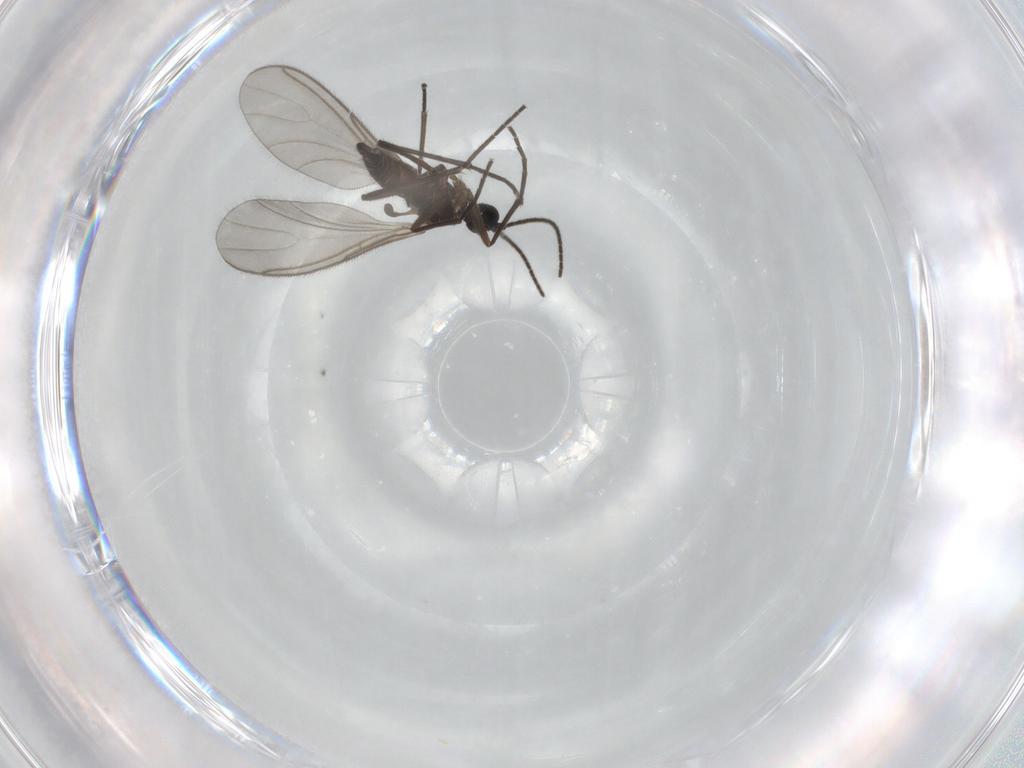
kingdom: Animalia
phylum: Arthropoda
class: Insecta
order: Diptera
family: Sciaridae
